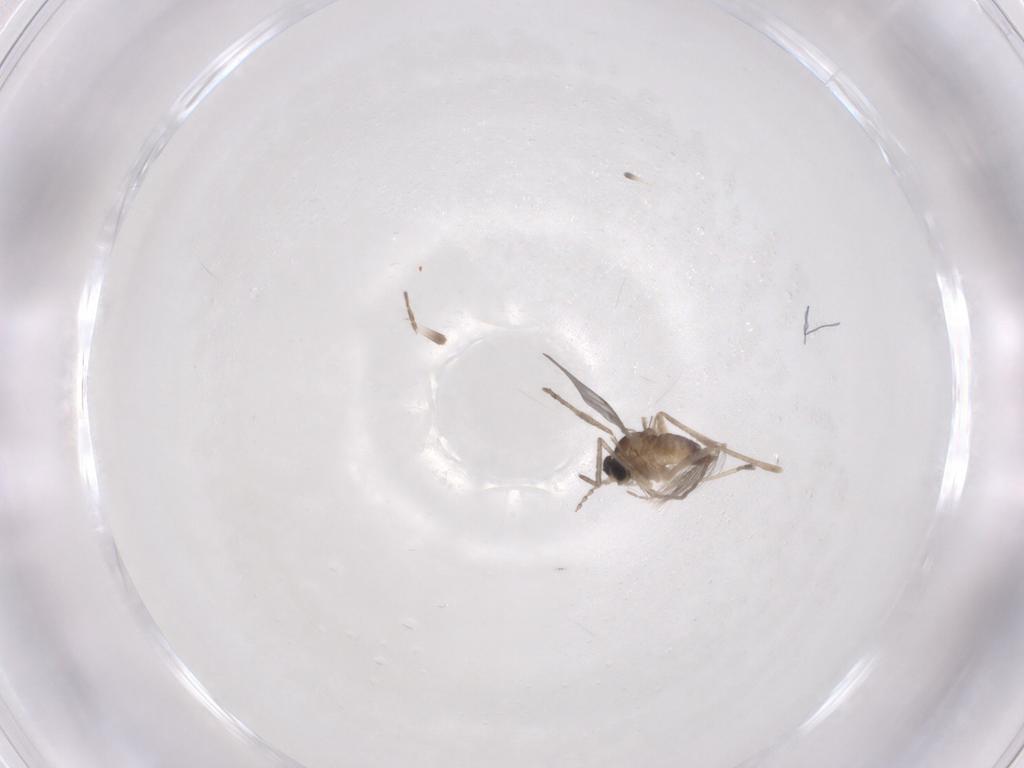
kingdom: Animalia
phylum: Arthropoda
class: Insecta
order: Diptera
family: Cecidomyiidae
